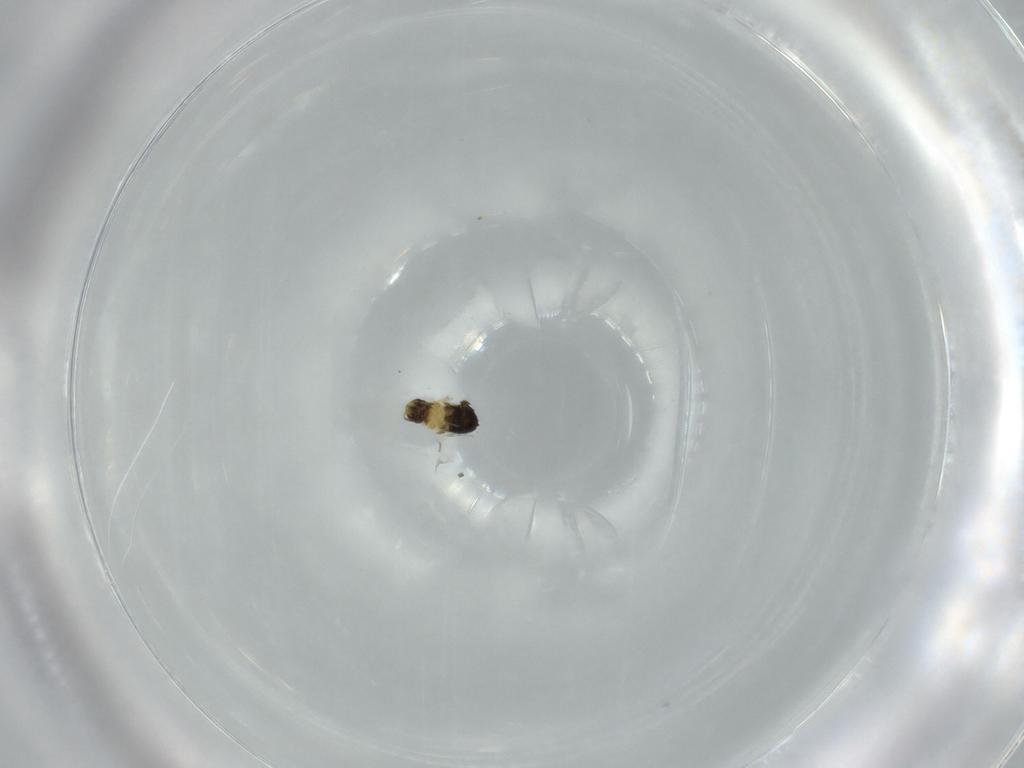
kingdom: Animalia
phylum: Arthropoda
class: Insecta
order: Hymenoptera
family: Signiphoridae
